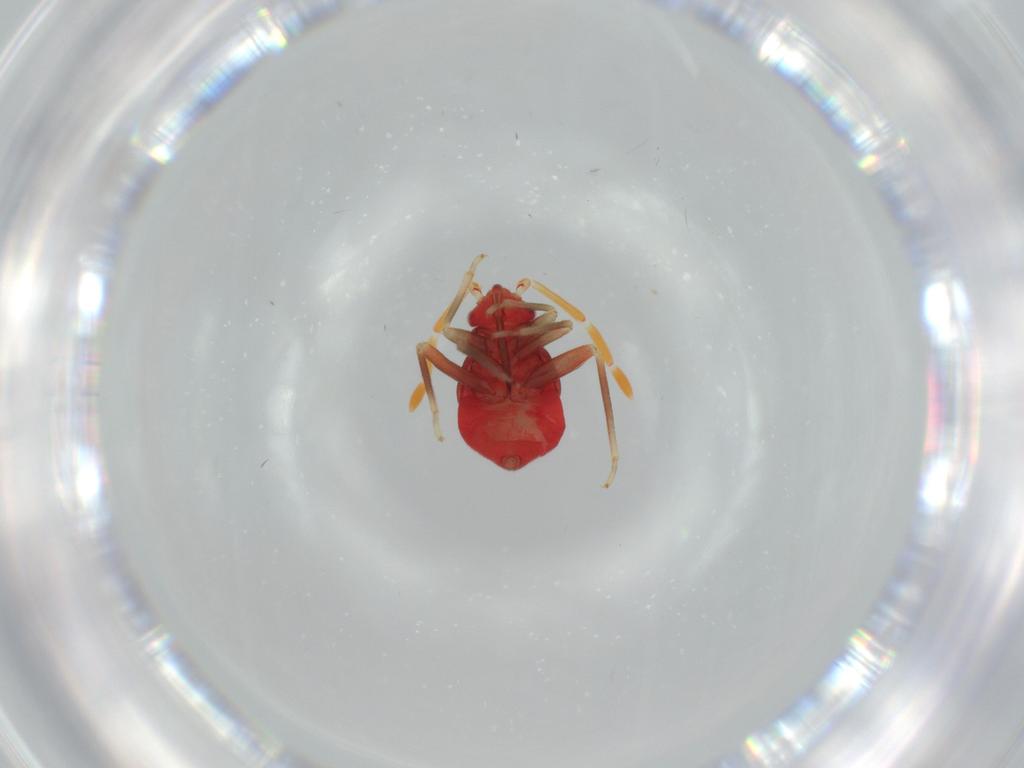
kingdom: Animalia
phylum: Arthropoda
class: Insecta
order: Hemiptera
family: Miridae
